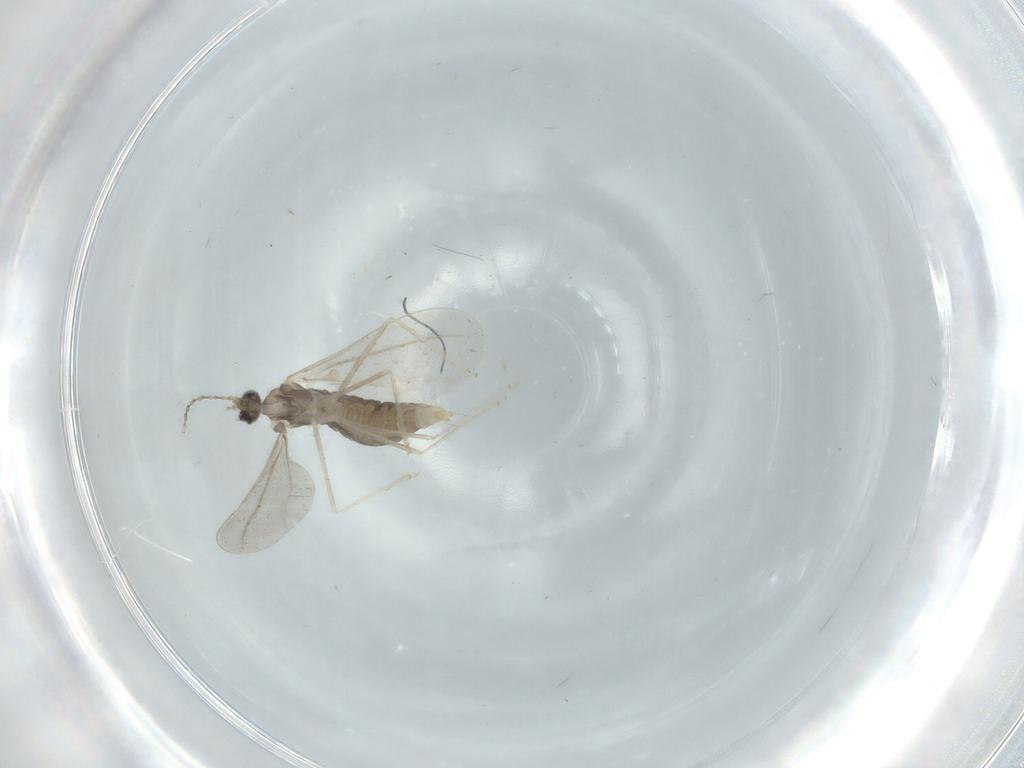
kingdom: Animalia
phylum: Arthropoda
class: Insecta
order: Diptera
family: Cecidomyiidae
